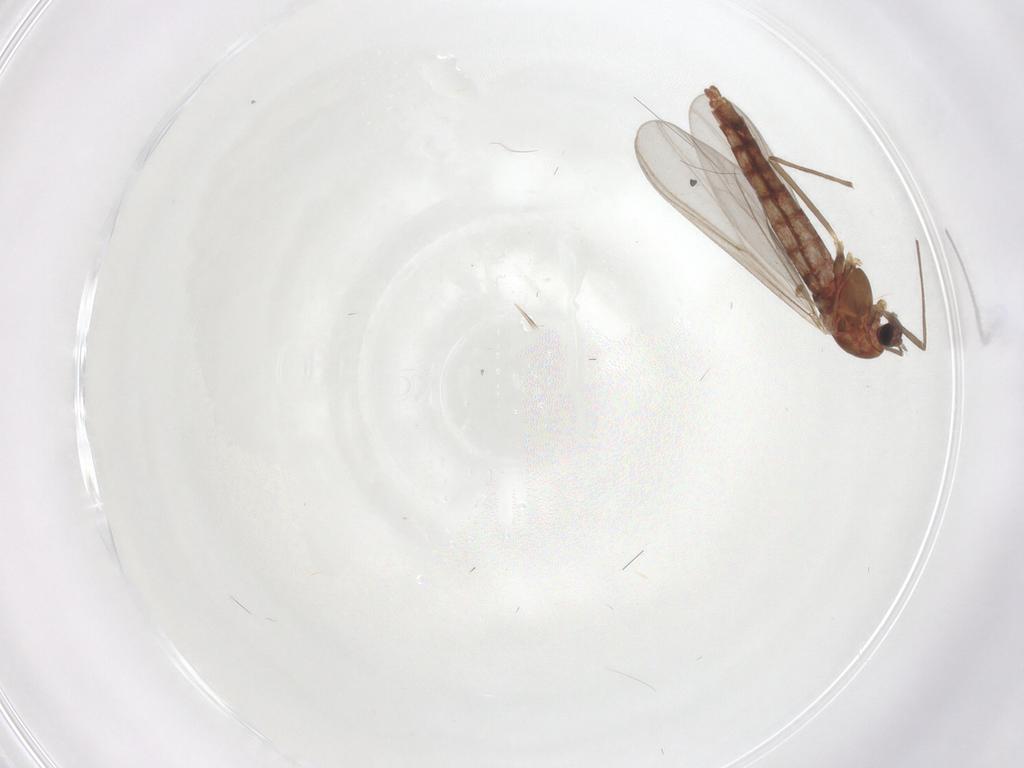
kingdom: Animalia
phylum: Arthropoda
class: Insecta
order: Diptera
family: Chironomidae
